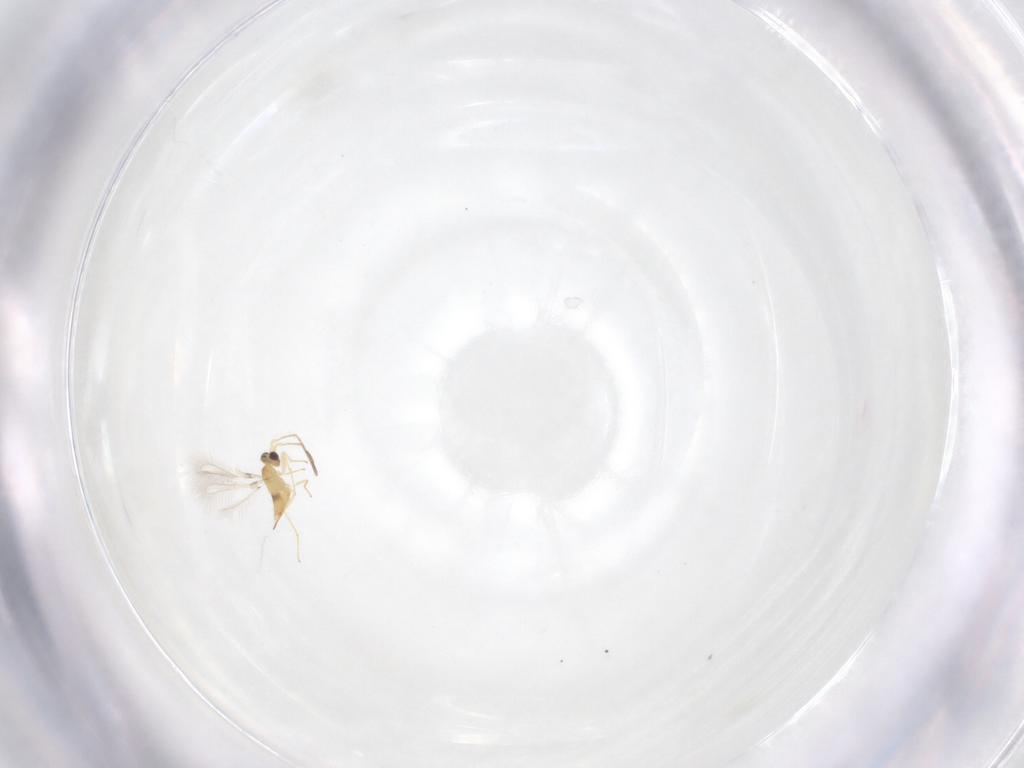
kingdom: Animalia
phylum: Arthropoda
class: Insecta
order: Hymenoptera
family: Mymaridae
